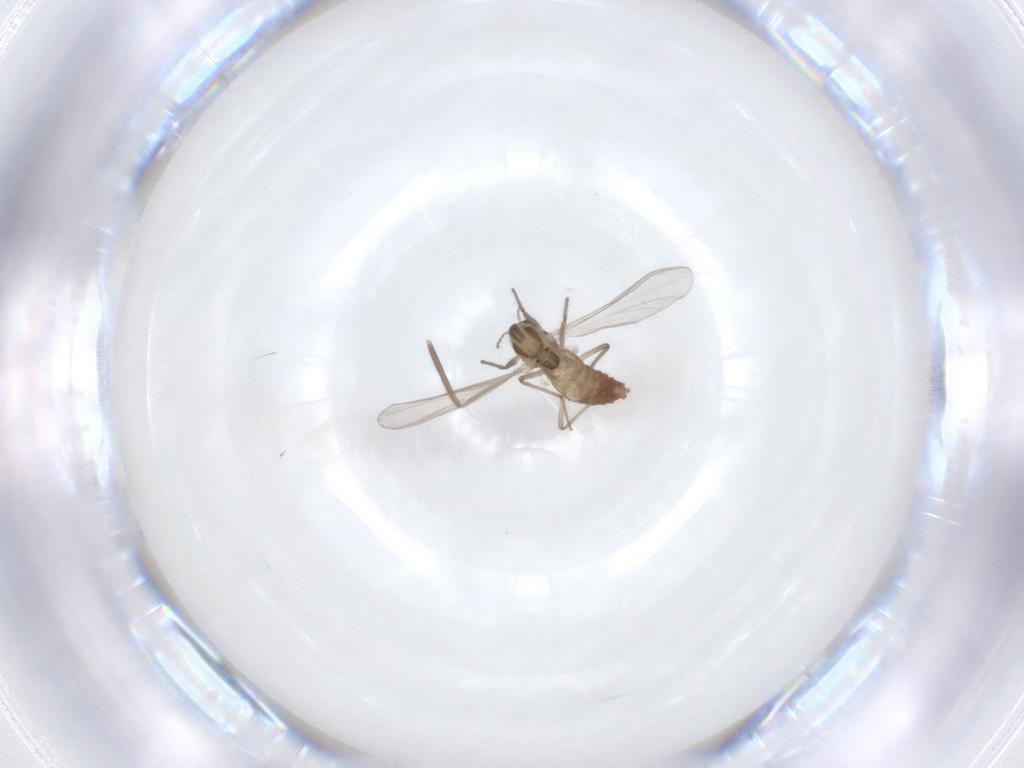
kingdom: Animalia
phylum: Arthropoda
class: Insecta
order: Diptera
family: Chironomidae
